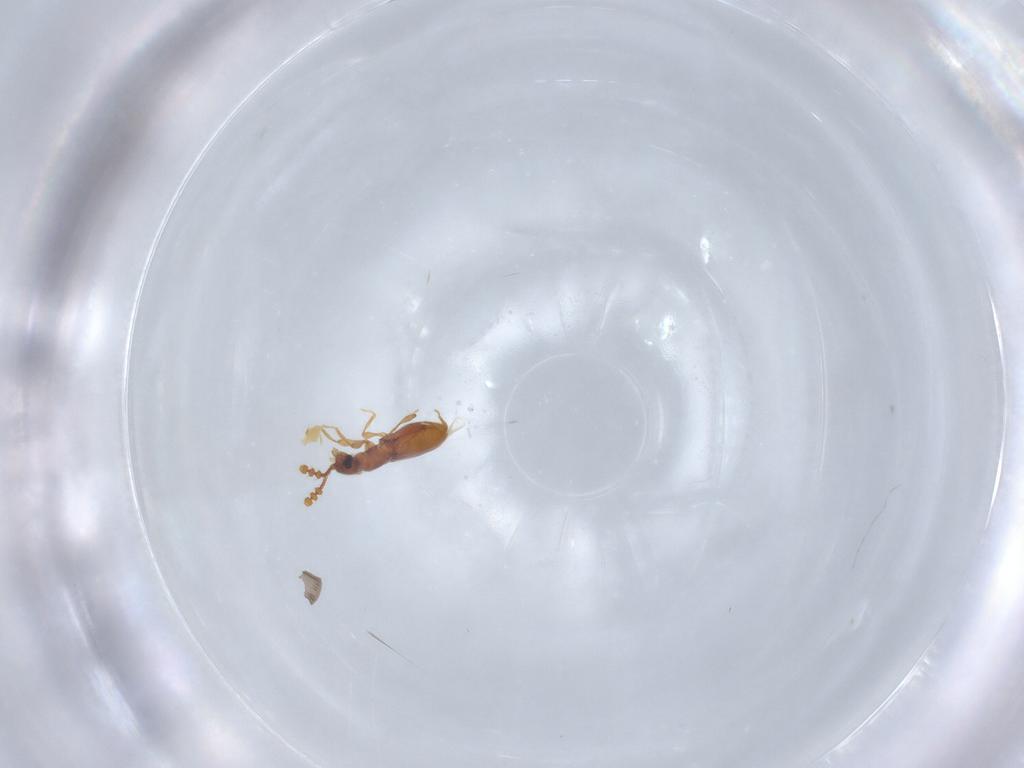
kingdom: Animalia
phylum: Arthropoda
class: Insecta
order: Coleoptera
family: Staphylinidae
